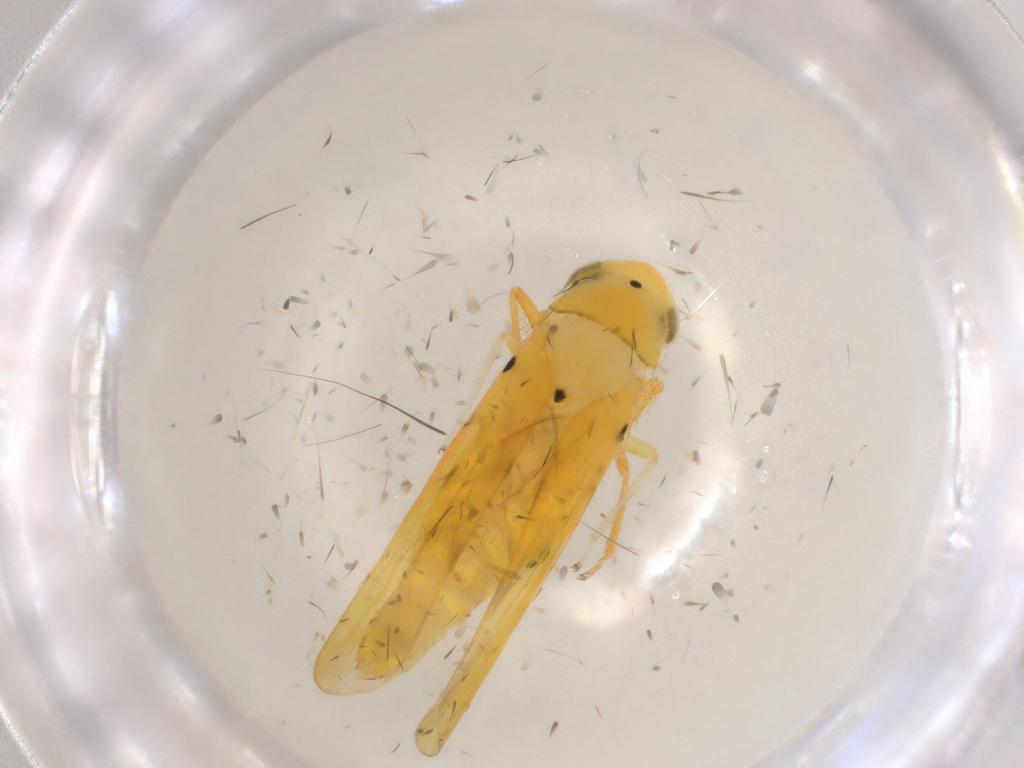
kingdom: Animalia
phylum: Arthropoda
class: Insecta
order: Hemiptera
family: Cicadellidae
